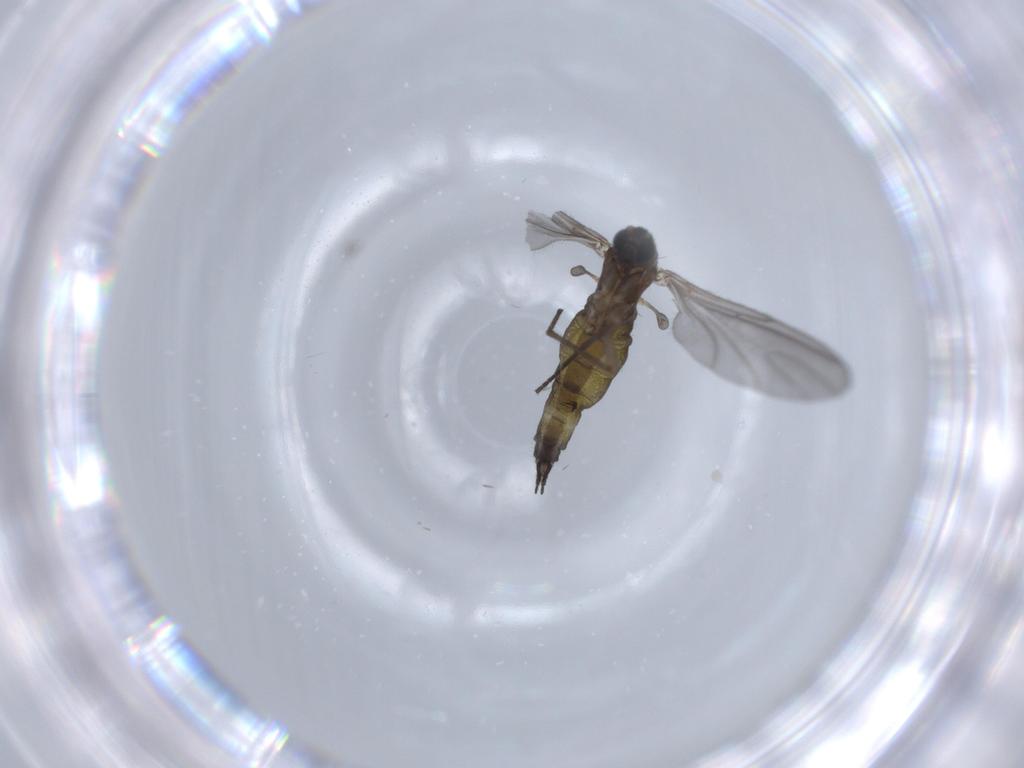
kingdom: Animalia
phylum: Arthropoda
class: Insecta
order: Diptera
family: Sciaridae
